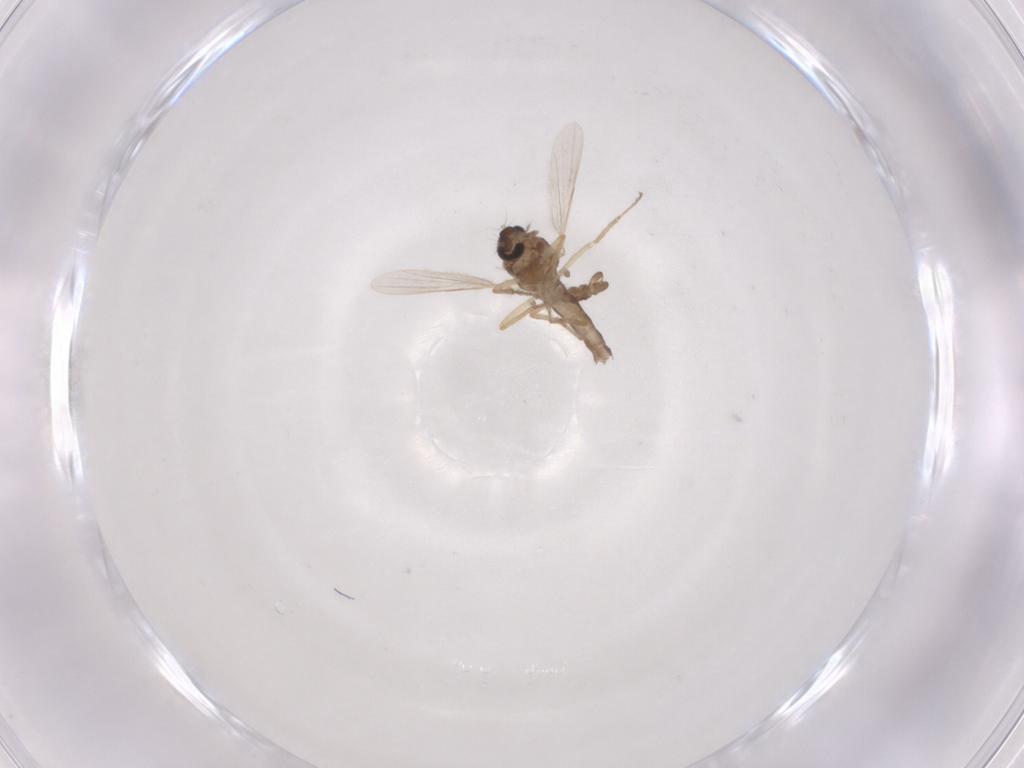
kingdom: Animalia
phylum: Arthropoda
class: Insecta
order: Diptera
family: Ceratopogonidae
